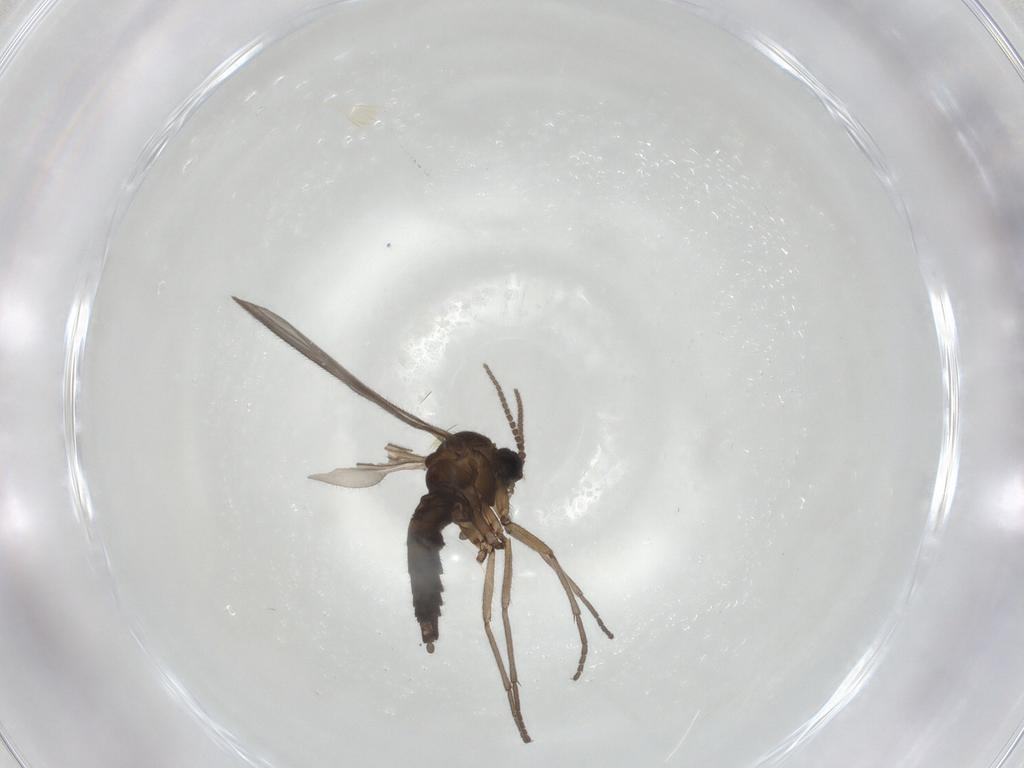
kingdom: Animalia
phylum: Arthropoda
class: Insecta
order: Diptera
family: Sciaridae
